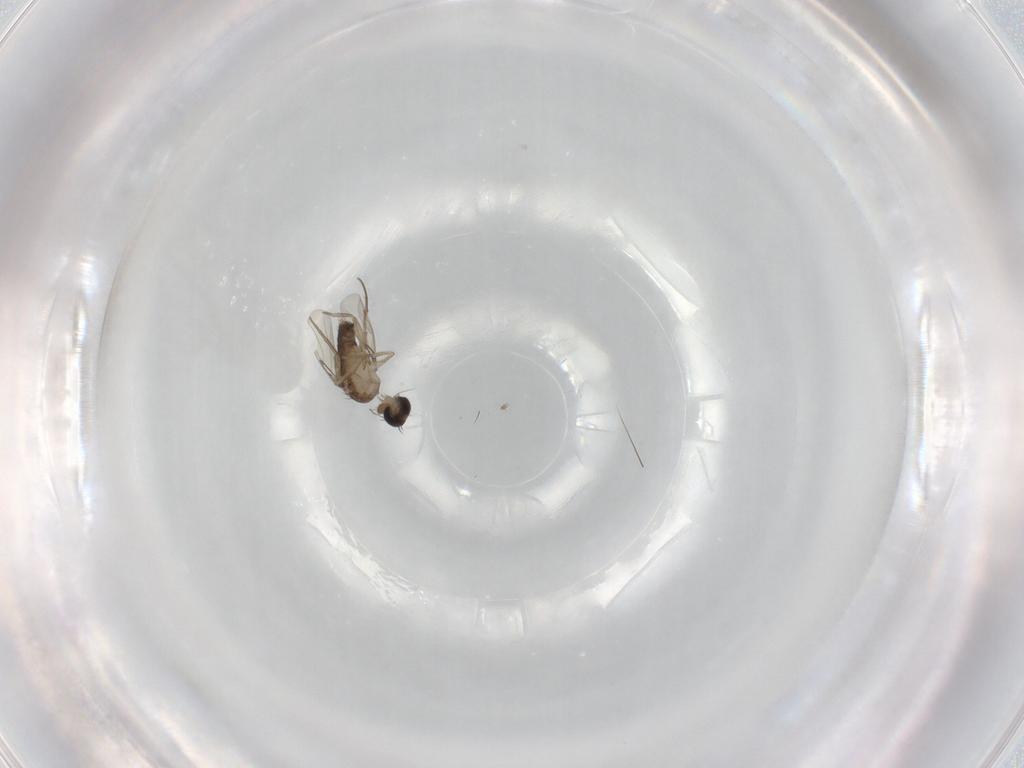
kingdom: Animalia
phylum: Arthropoda
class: Insecta
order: Diptera
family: Phoridae
